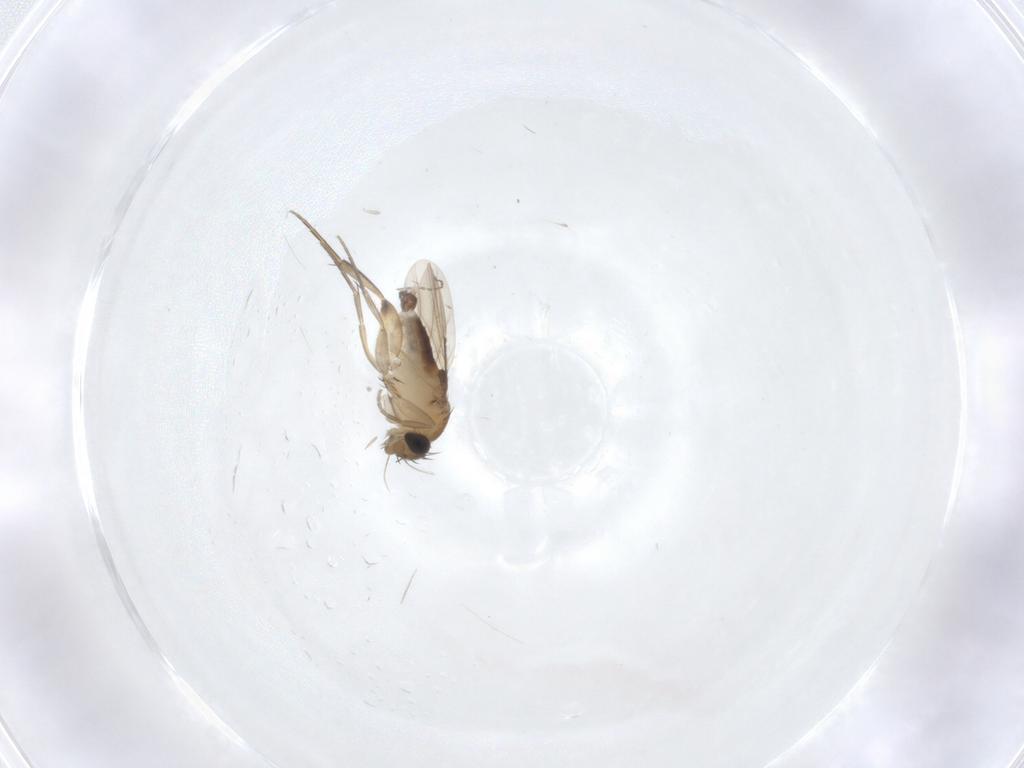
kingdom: Animalia
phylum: Arthropoda
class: Insecta
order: Diptera
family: Phoridae
